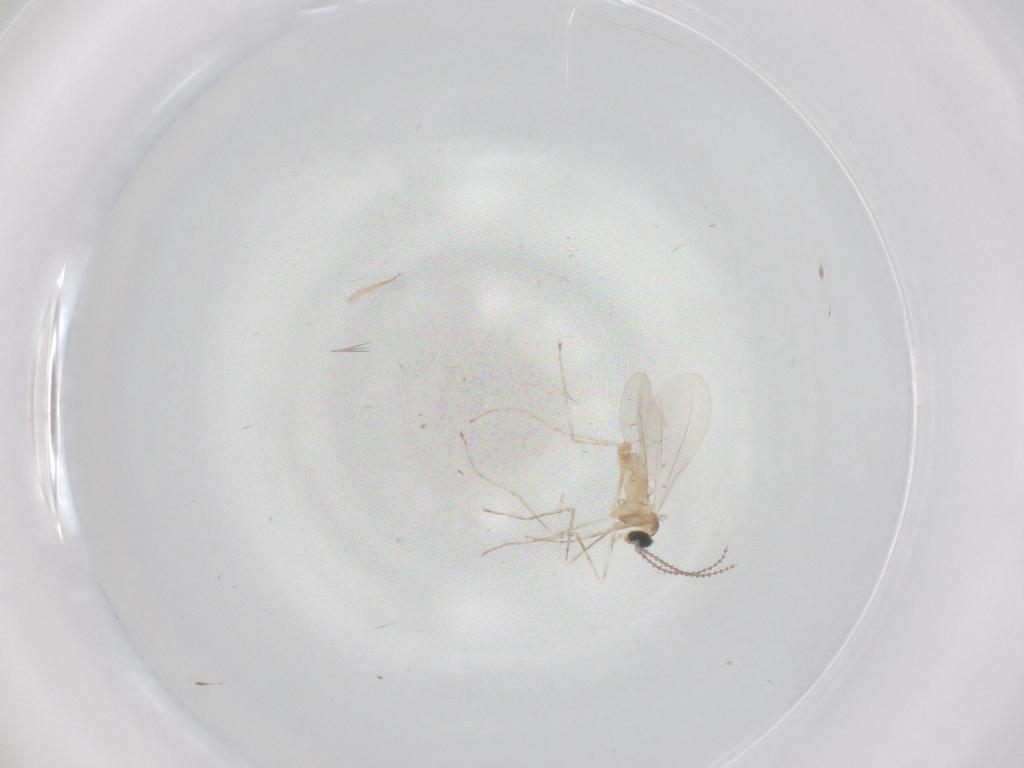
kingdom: Animalia
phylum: Arthropoda
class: Insecta
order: Diptera
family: Cecidomyiidae
